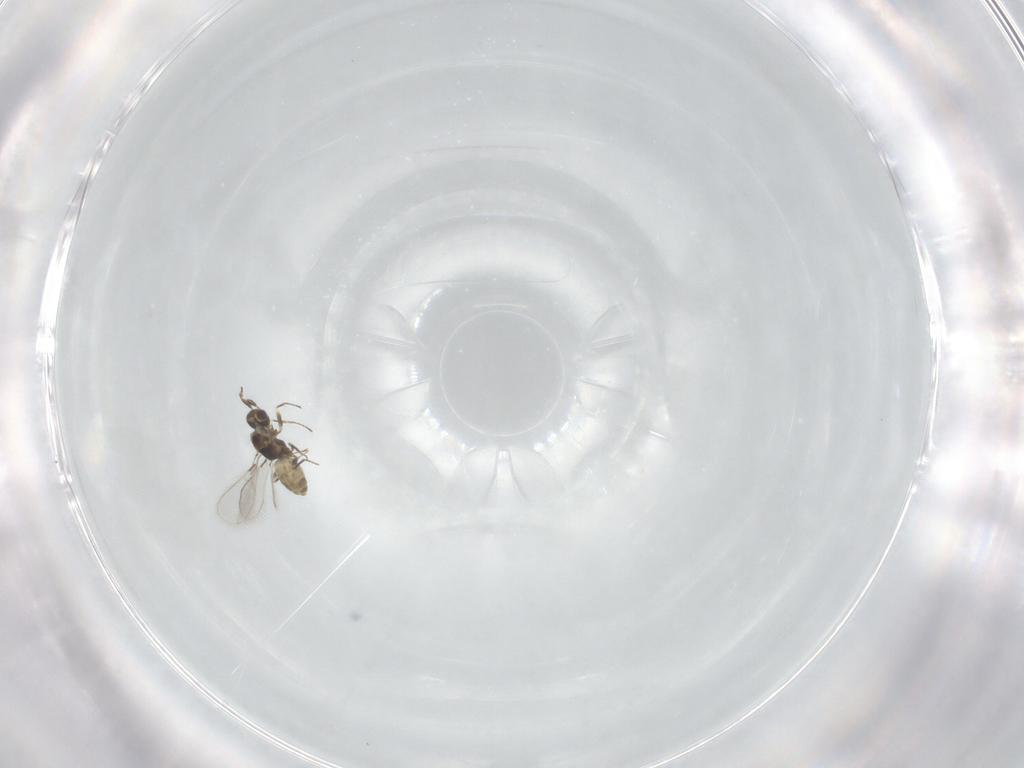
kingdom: Animalia
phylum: Arthropoda
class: Insecta
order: Hymenoptera
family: Mymaridae
